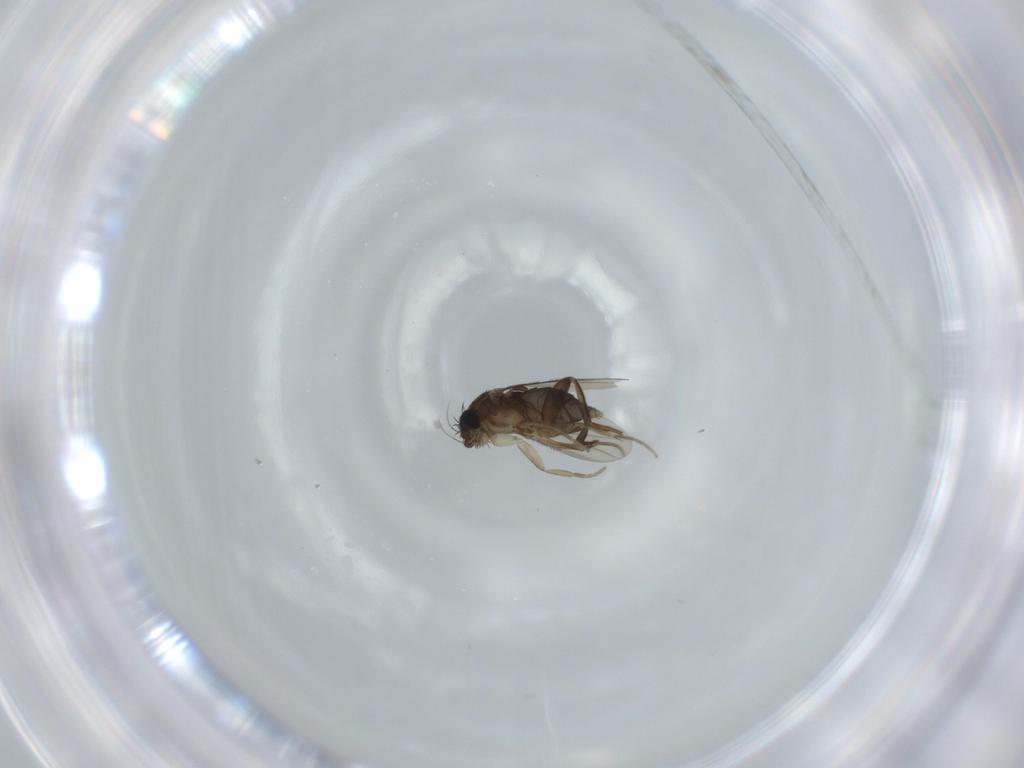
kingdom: Animalia
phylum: Arthropoda
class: Insecta
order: Diptera
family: Phoridae
